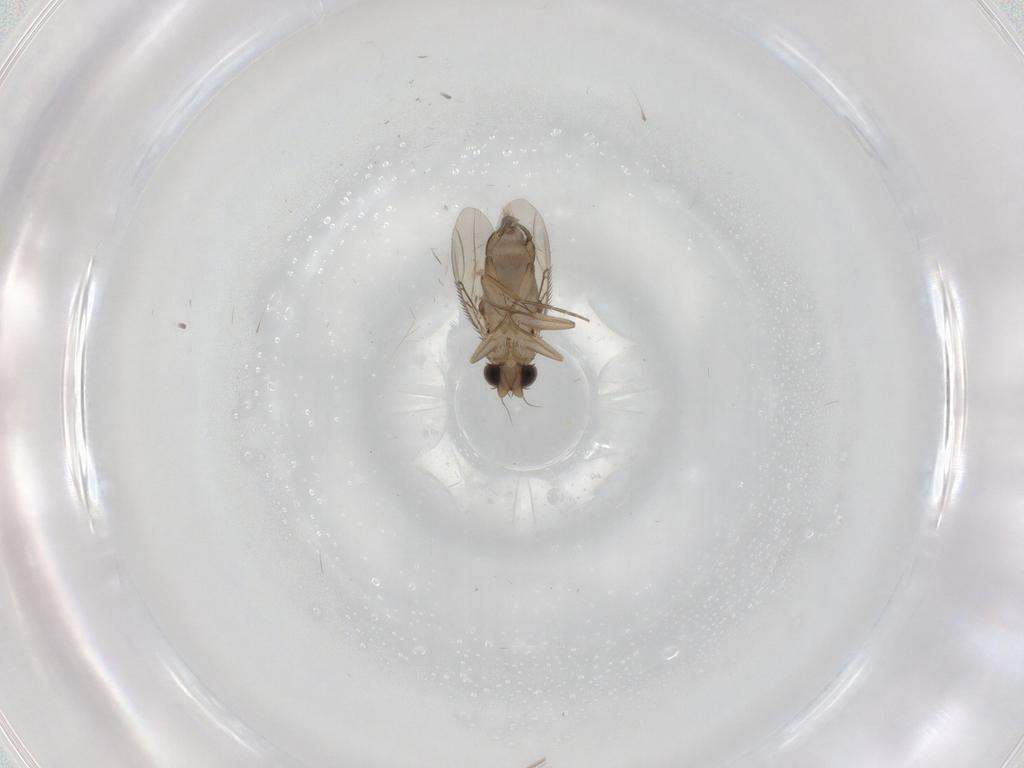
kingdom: Animalia
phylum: Arthropoda
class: Insecta
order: Diptera
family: Phoridae
